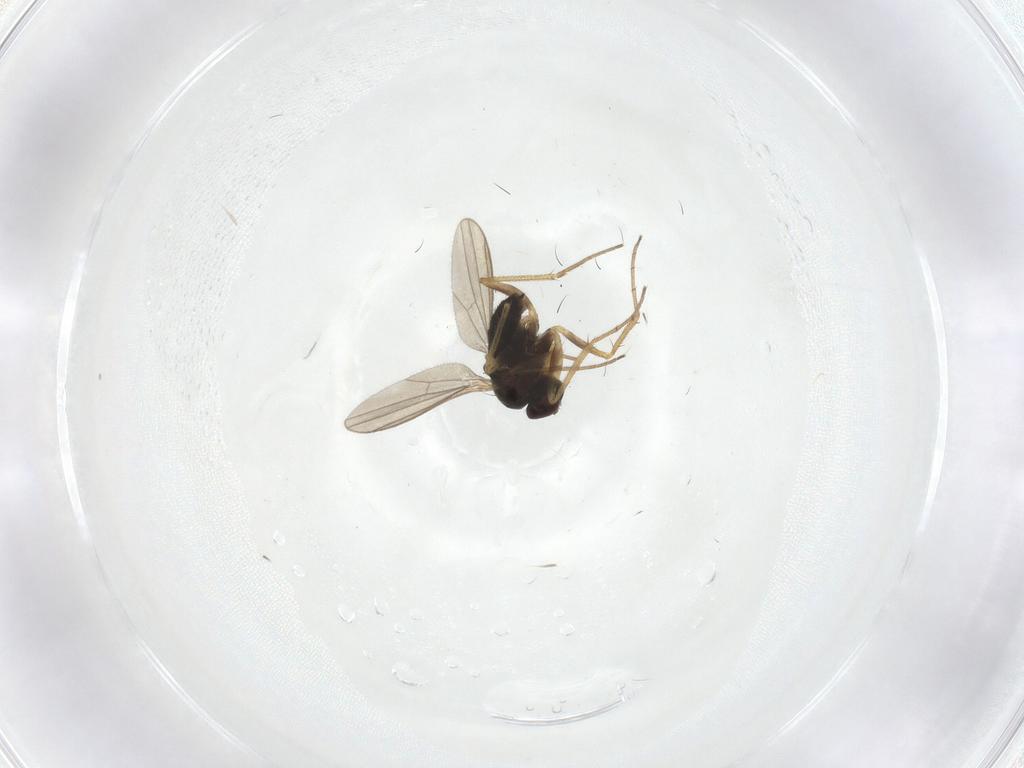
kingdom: Animalia
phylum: Arthropoda
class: Insecta
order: Diptera
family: Dolichopodidae
